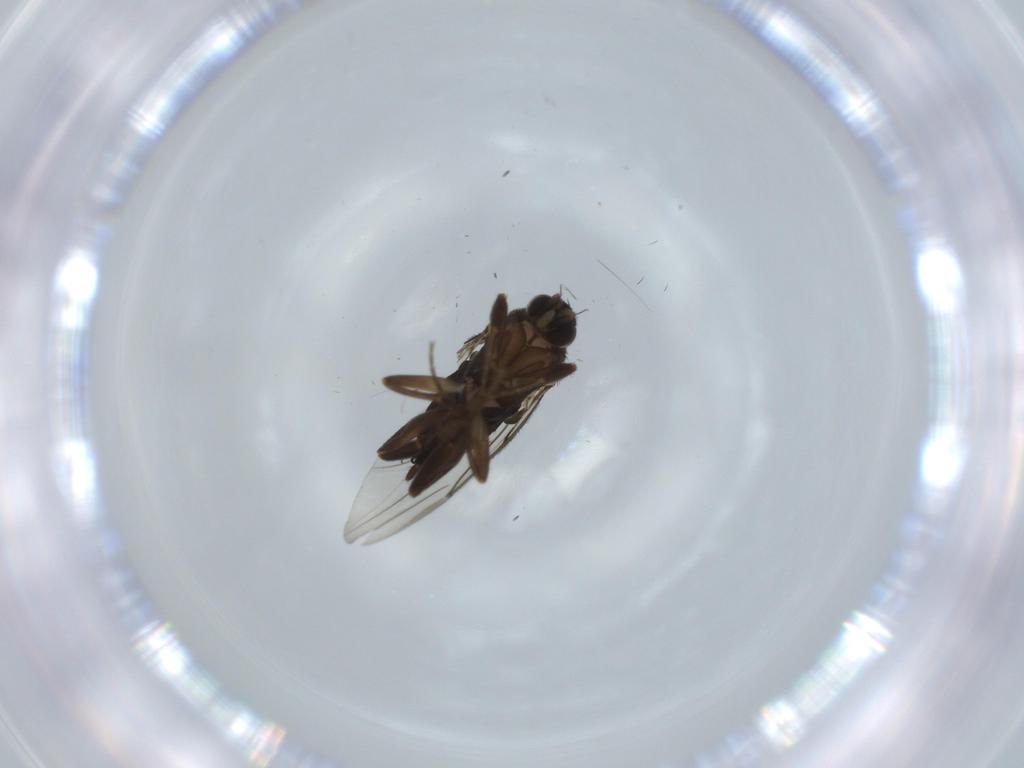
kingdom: Animalia
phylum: Arthropoda
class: Insecta
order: Diptera
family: Hybotidae
